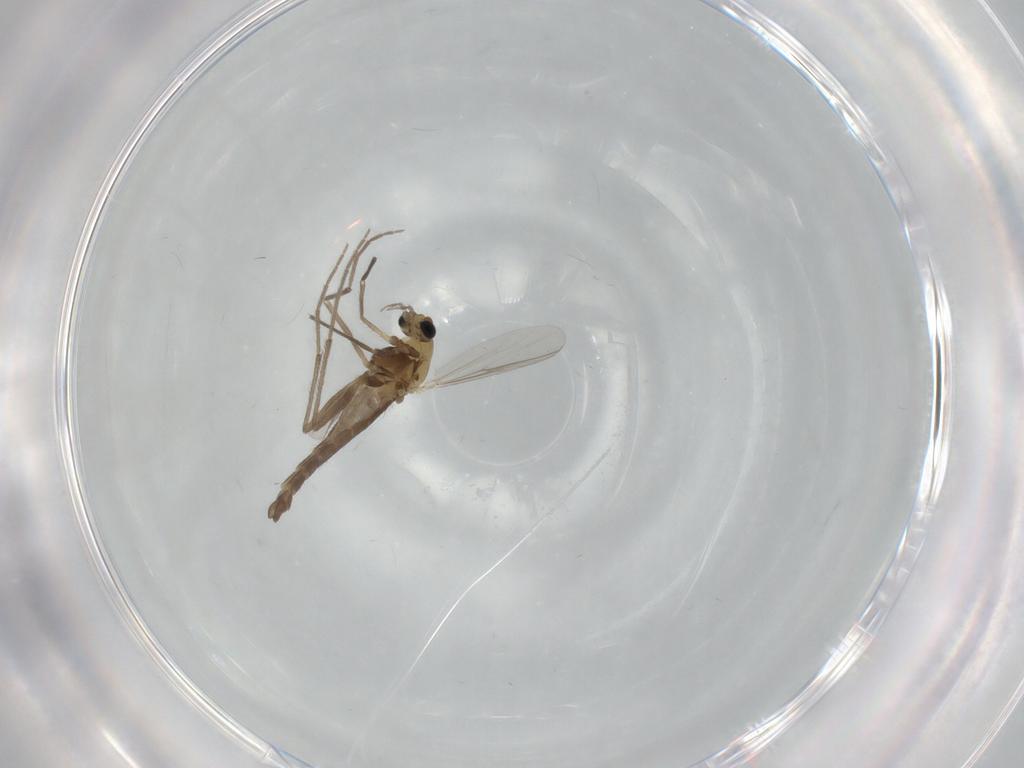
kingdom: Animalia
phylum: Arthropoda
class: Insecta
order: Diptera
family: Chironomidae
